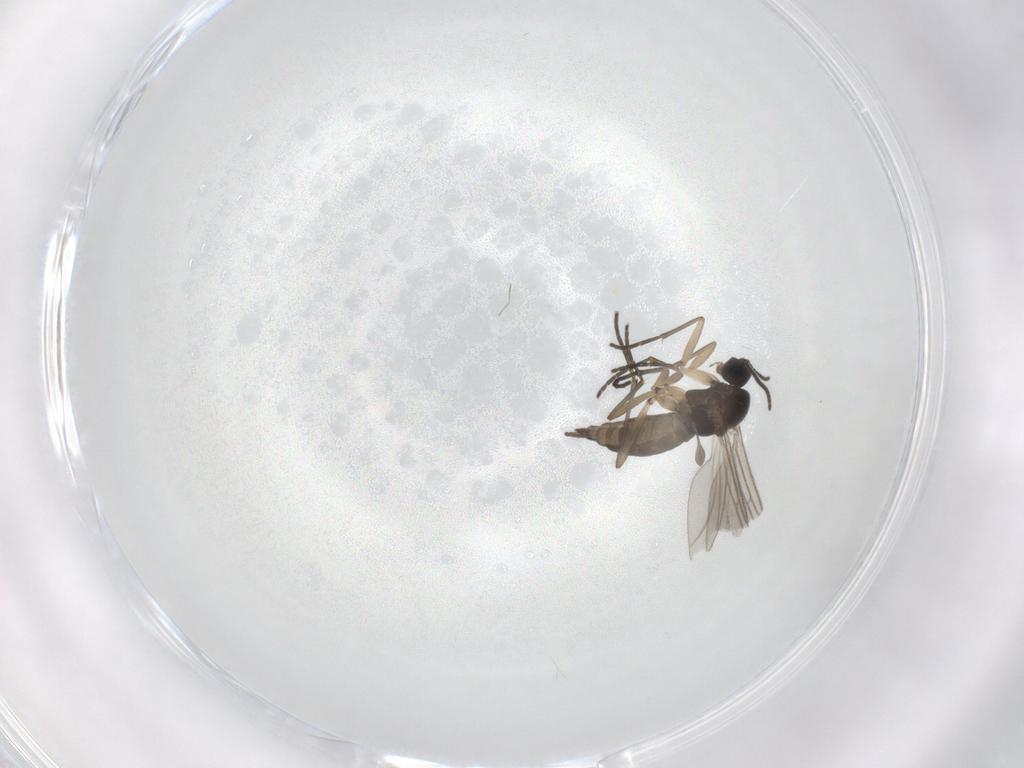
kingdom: Animalia
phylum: Arthropoda
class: Insecta
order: Diptera
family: Sciaridae
